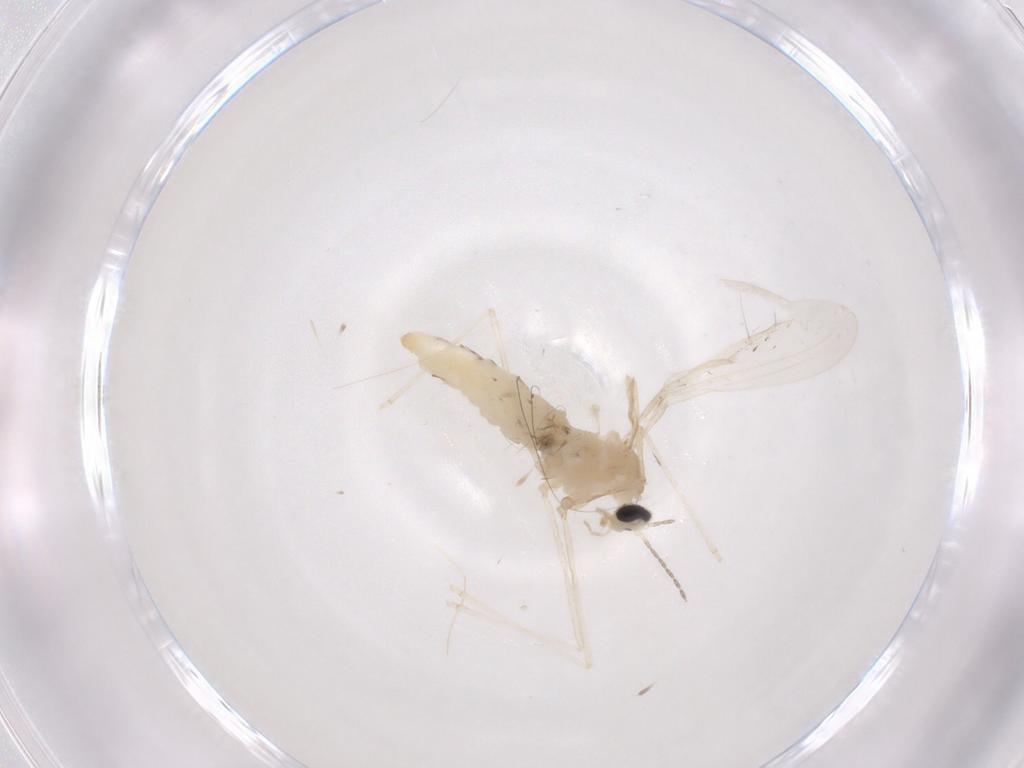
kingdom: Animalia
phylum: Arthropoda
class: Insecta
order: Diptera
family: Cecidomyiidae
